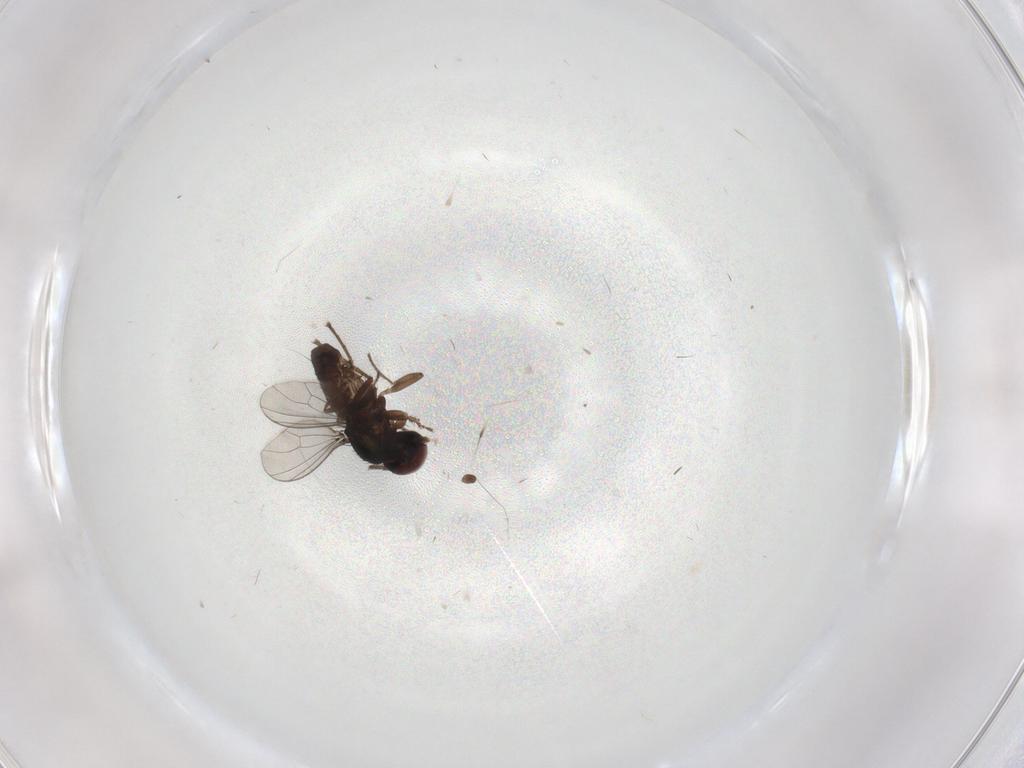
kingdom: Animalia
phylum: Arthropoda
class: Insecta
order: Diptera
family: Dolichopodidae
